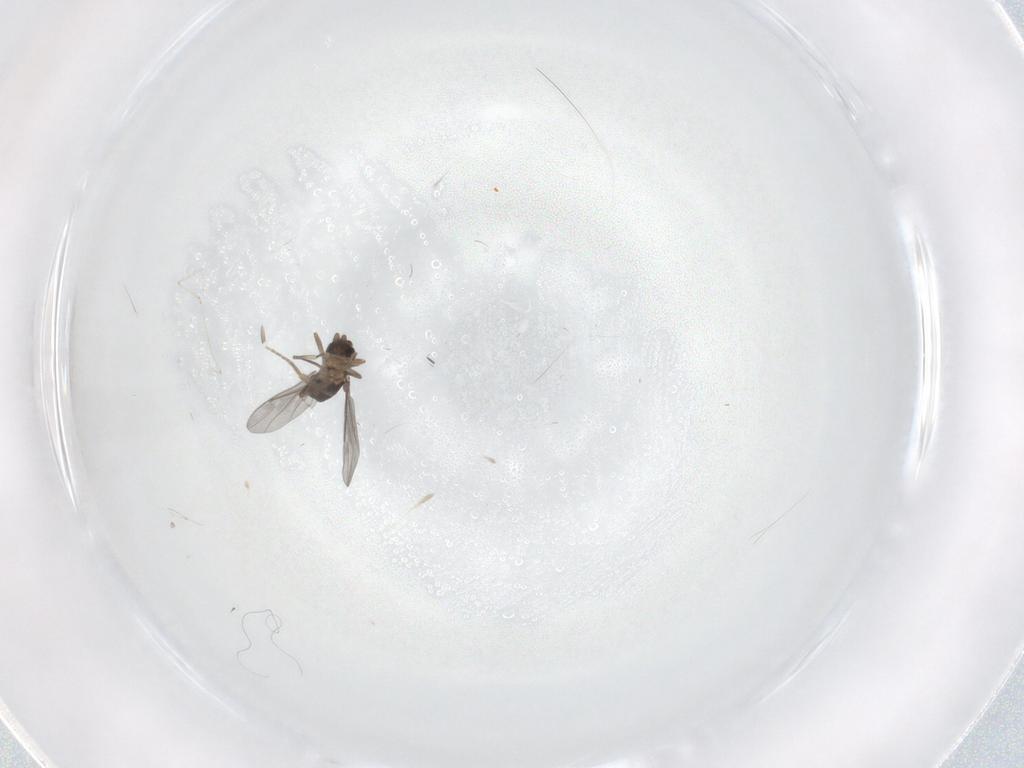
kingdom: Animalia
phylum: Arthropoda
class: Insecta
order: Diptera
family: Cecidomyiidae
